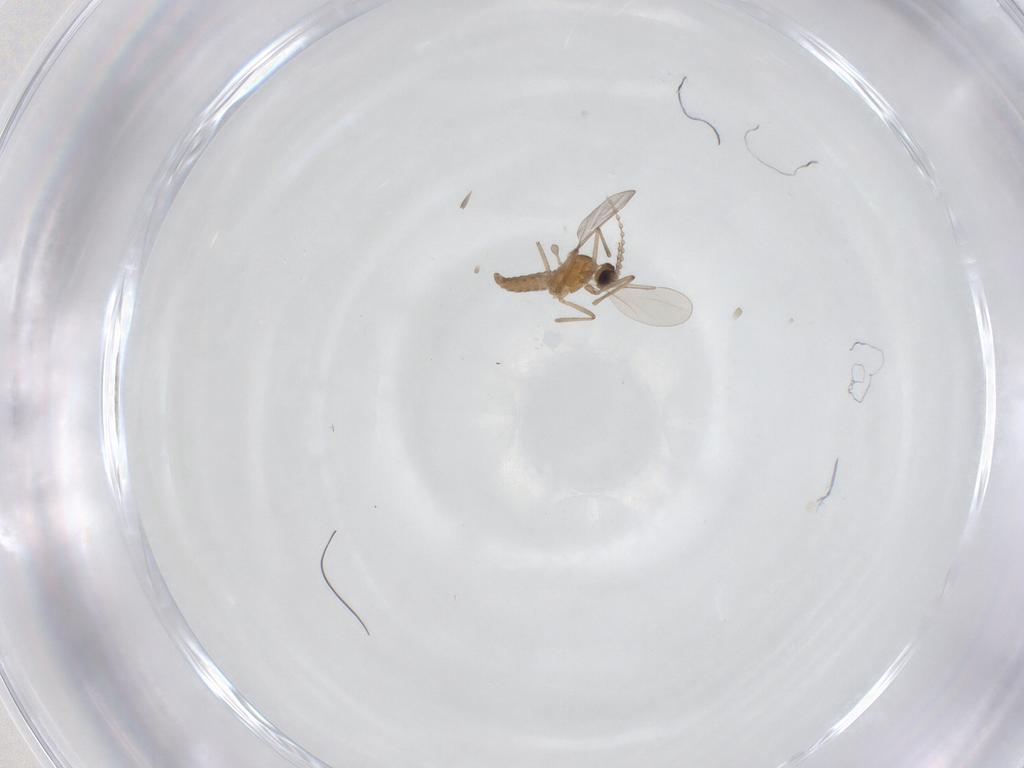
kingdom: Animalia
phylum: Arthropoda
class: Insecta
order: Diptera
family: Cecidomyiidae
